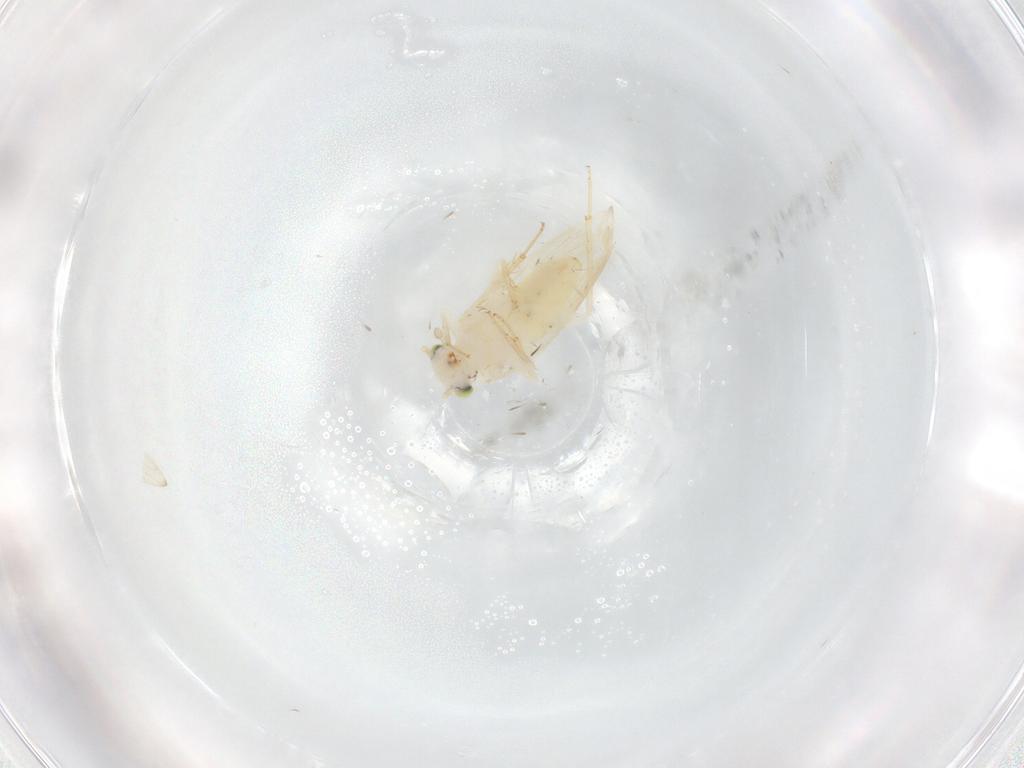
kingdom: Animalia
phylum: Arthropoda
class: Insecta
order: Psocodea
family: Lepidopsocidae
